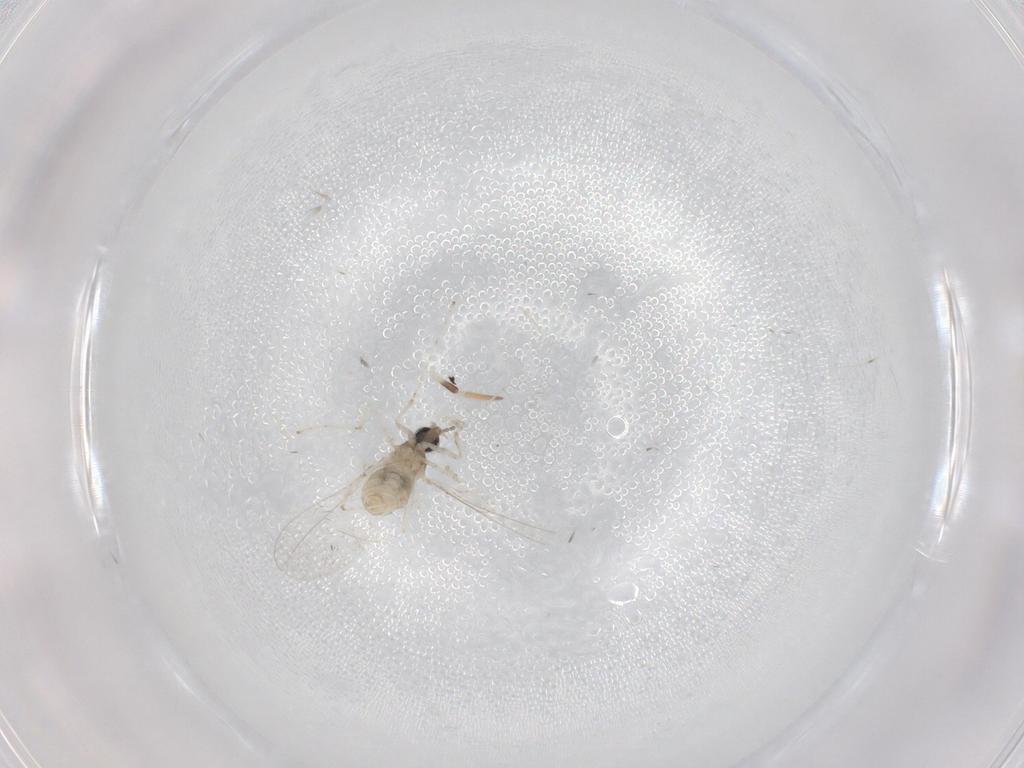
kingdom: Animalia
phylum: Arthropoda
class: Insecta
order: Diptera
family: Cecidomyiidae
